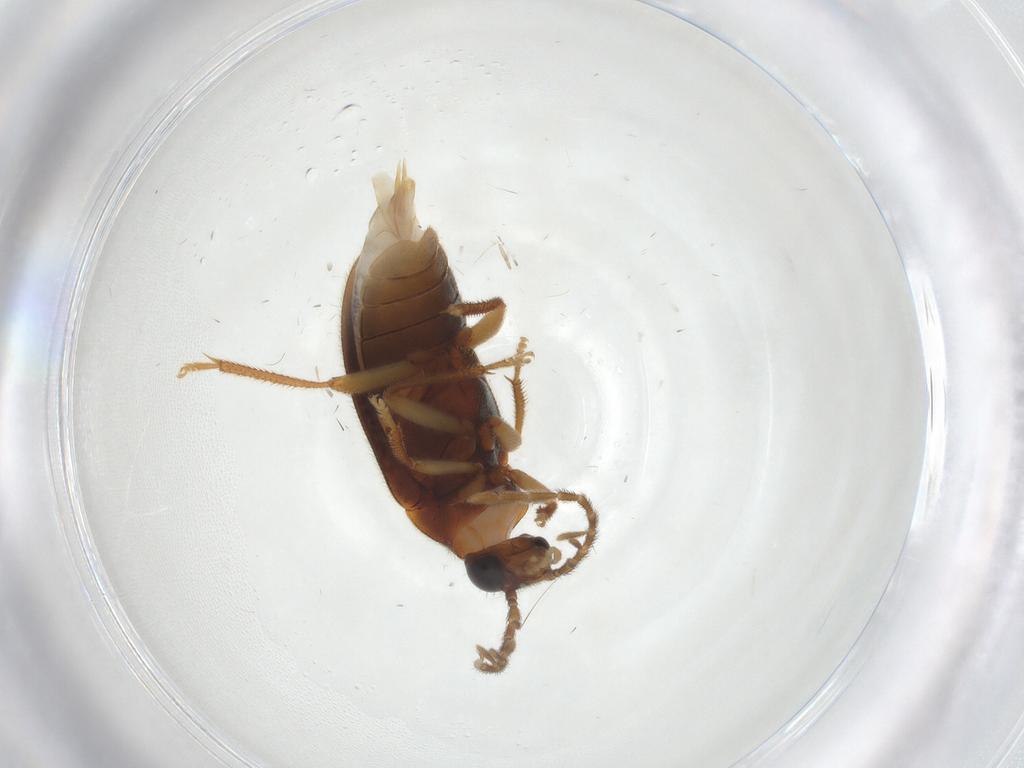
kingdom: Animalia
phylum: Arthropoda
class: Insecta
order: Coleoptera
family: Ptilodactylidae
